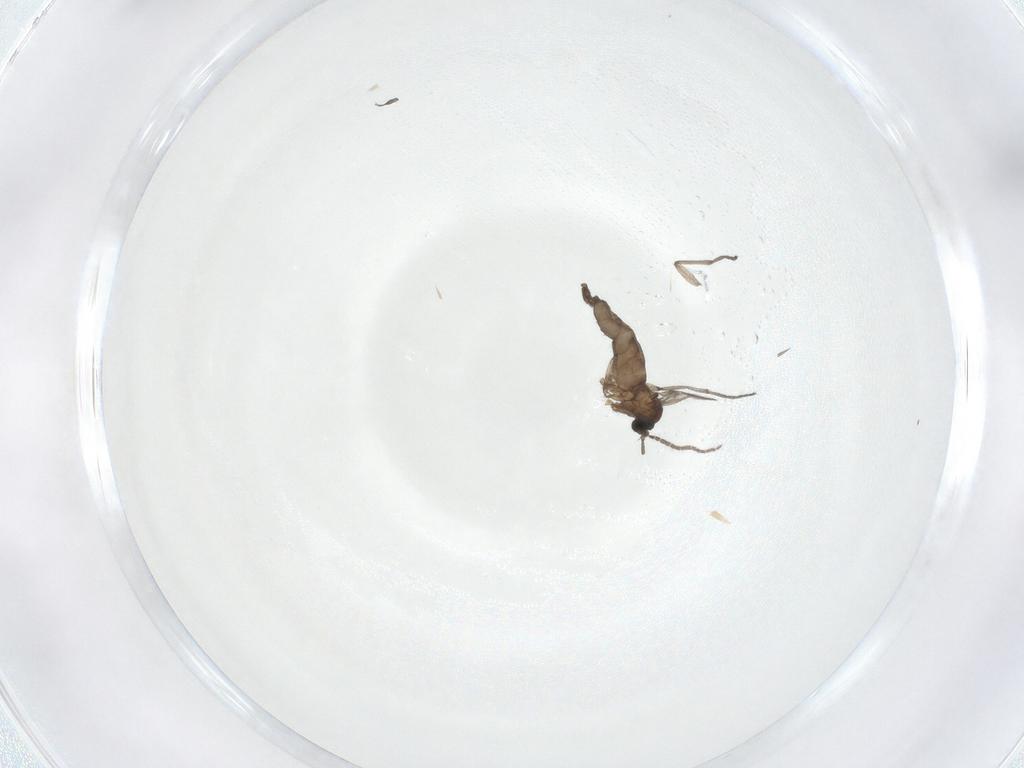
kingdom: Animalia
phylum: Arthropoda
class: Insecta
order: Diptera
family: Sciaridae
